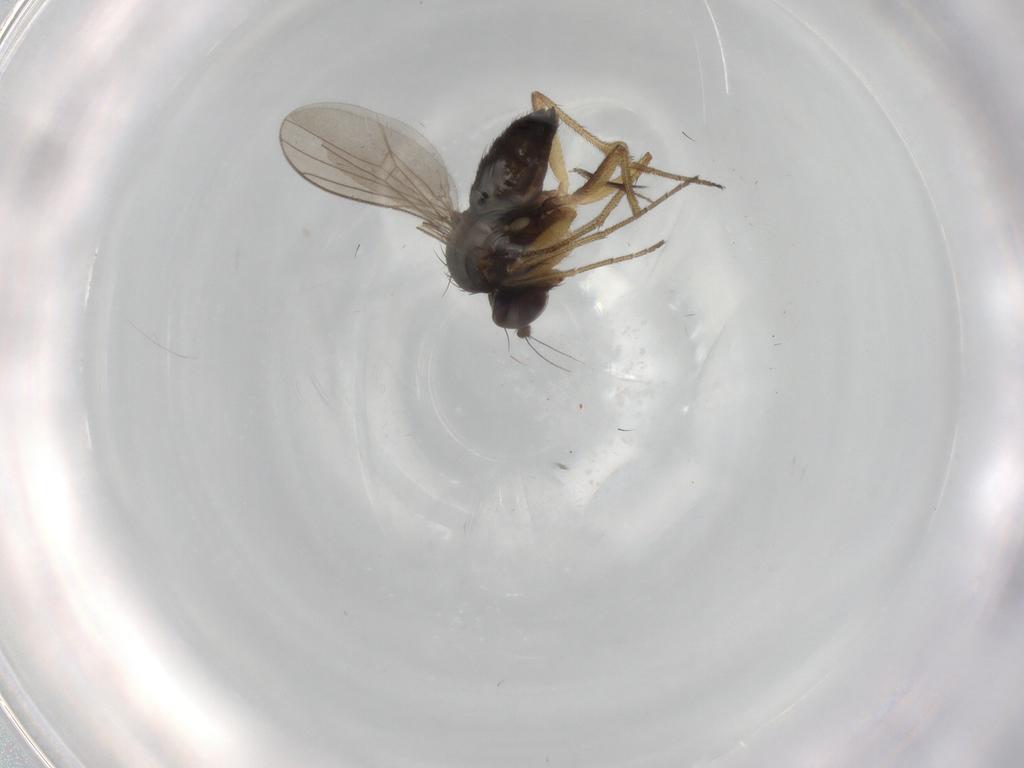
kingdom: Animalia
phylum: Arthropoda
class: Insecta
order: Diptera
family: Dolichopodidae
